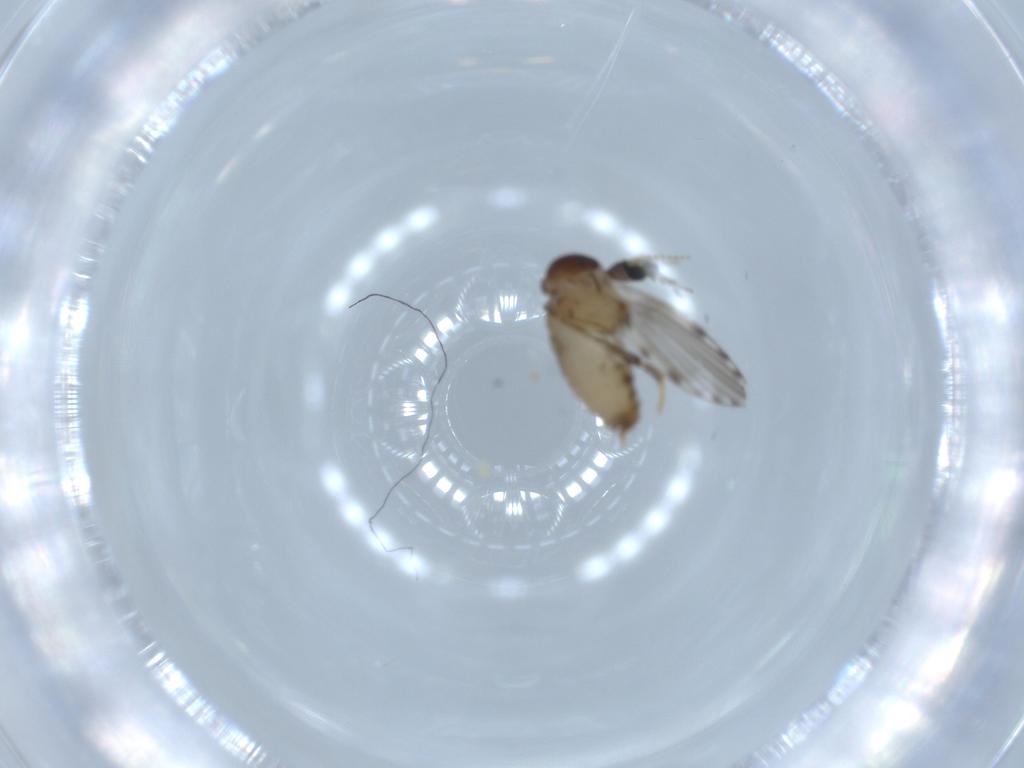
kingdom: Animalia
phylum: Arthropoda
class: Insecta
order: Diptera
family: Psychodidae
